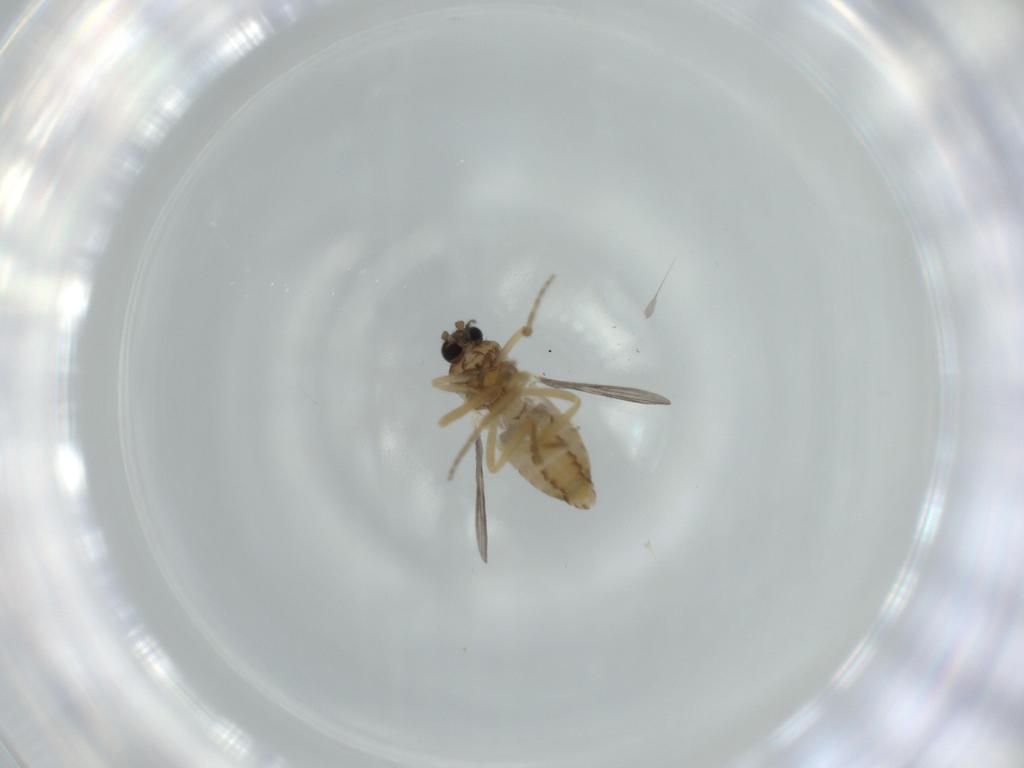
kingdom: Animalia
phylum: Arthropoda
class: Insecta
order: Diptera
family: Ceratopogonidae
